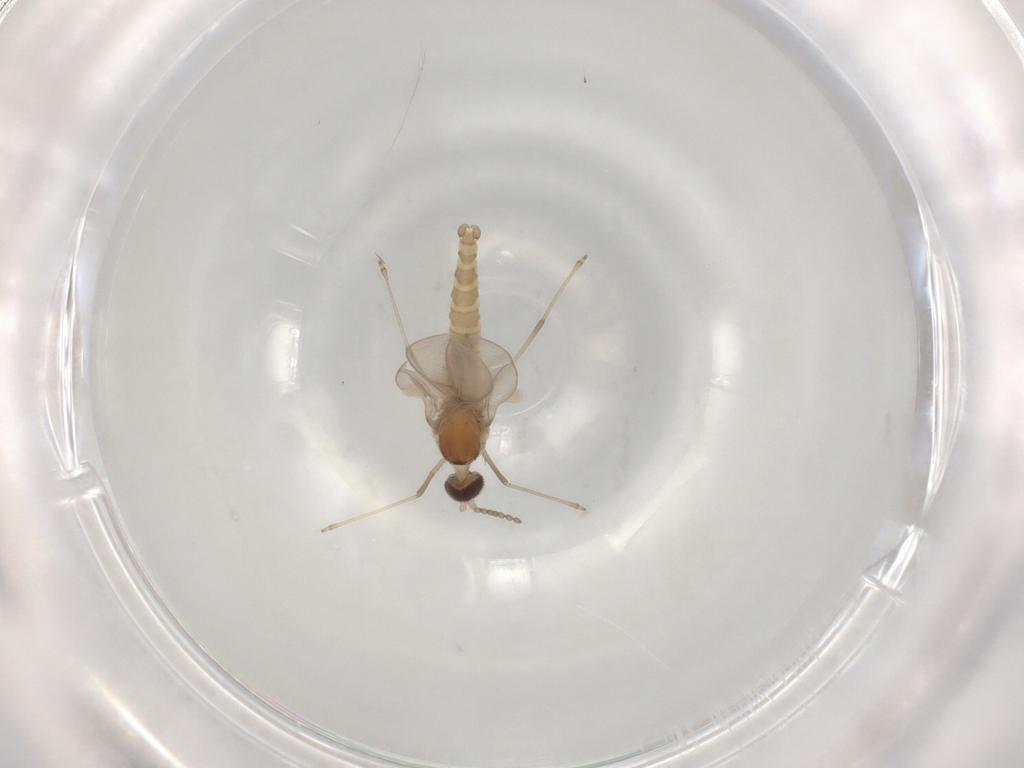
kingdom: Animalia
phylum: Arthropoda
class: Insecta
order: Diptera
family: Cecidomyiidae
